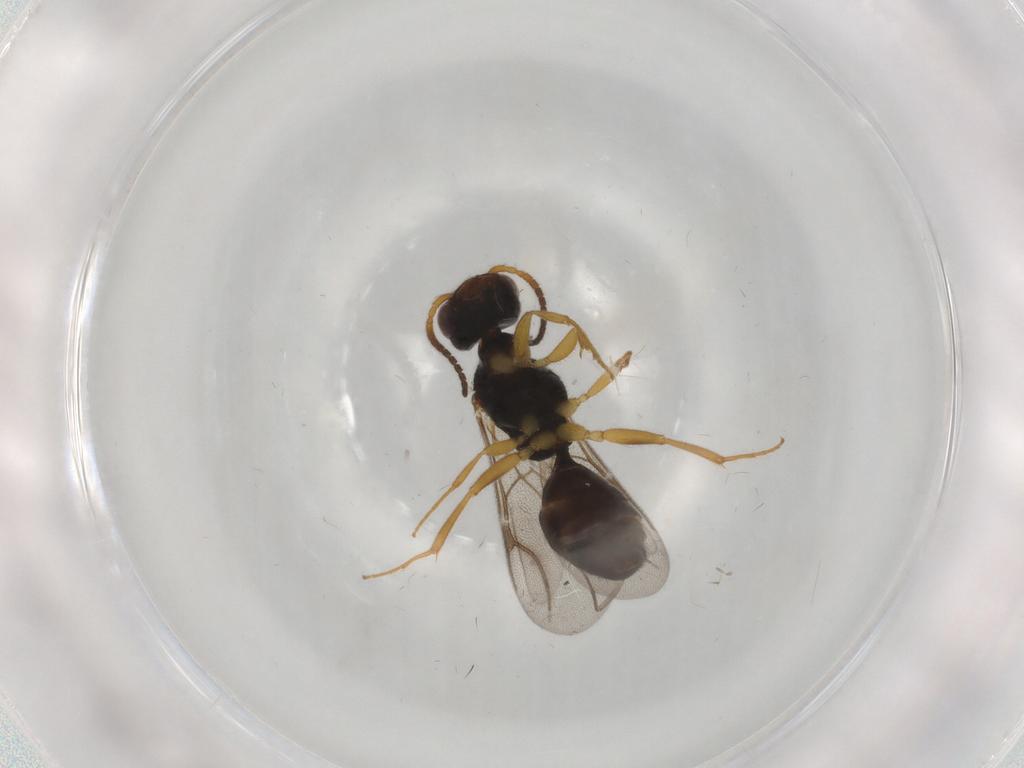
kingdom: Animalia
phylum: Arthropoda
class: Insecta
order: Hymenoptera
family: Bethylidae
